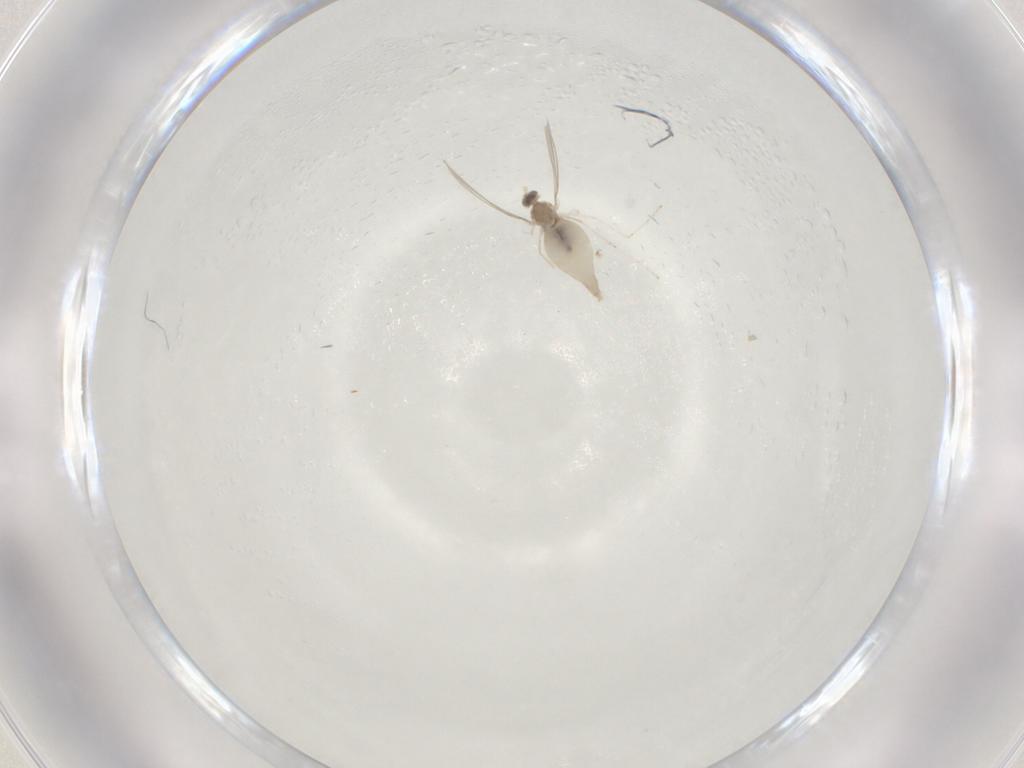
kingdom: Animalia
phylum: Arthropoda
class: Insecta
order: Diptera
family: Cecidomyiidae
